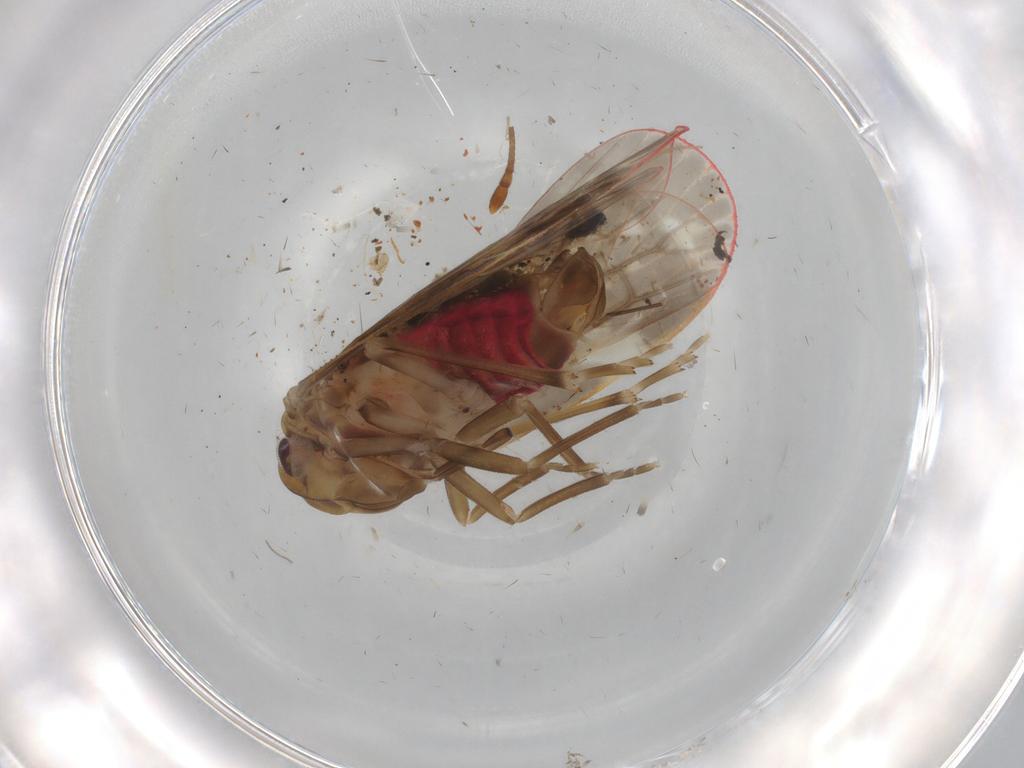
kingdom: Animalia
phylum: Arthropoda
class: Insecta
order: Hemiptera
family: Achilidae
